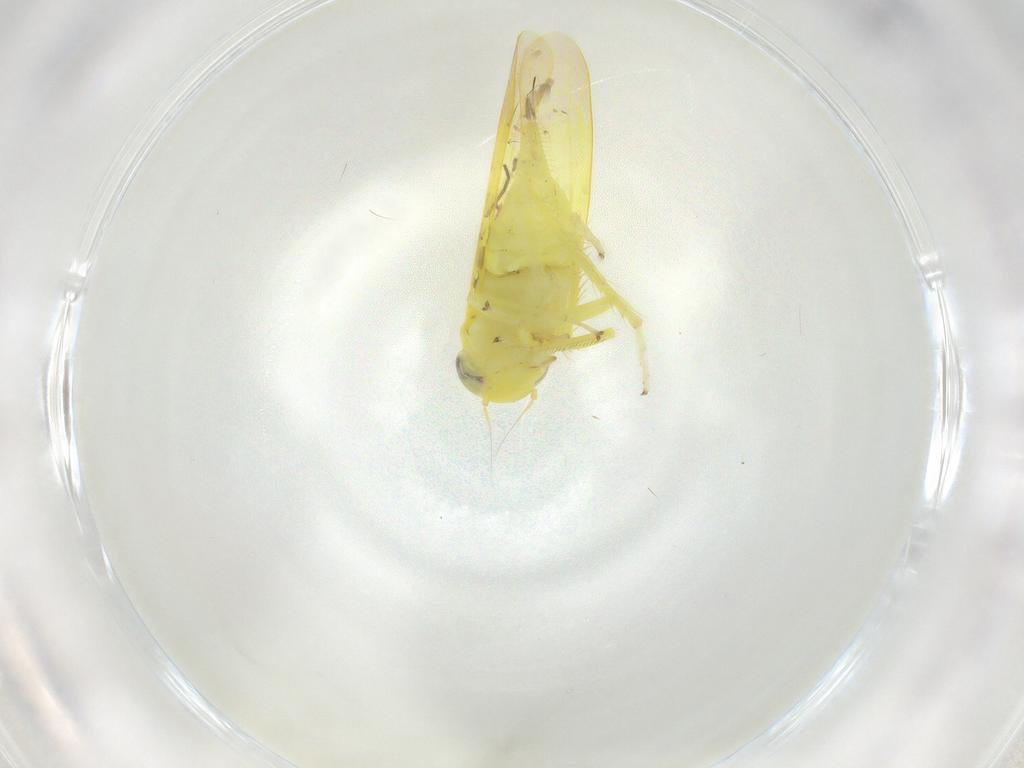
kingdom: Animalia
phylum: Arthropoda
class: Insecta
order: Hemiptera
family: Cicadellidae
